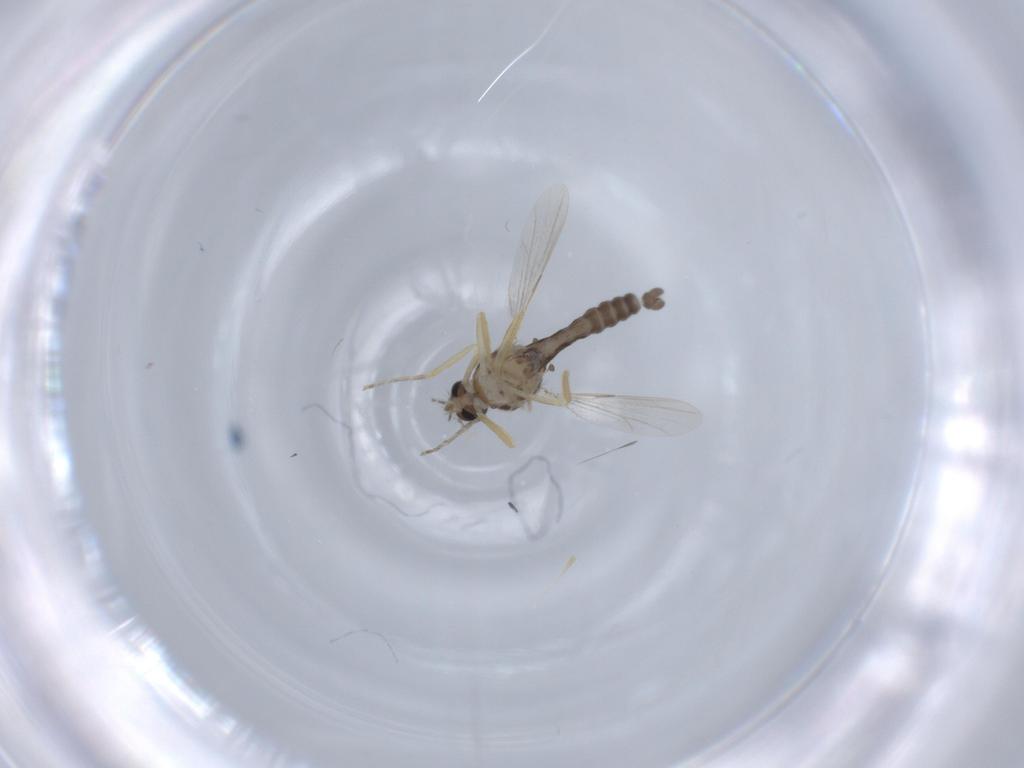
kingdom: Animalia
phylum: Arthropoda
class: Insecta
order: Diptera
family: Ceratopogonidae
